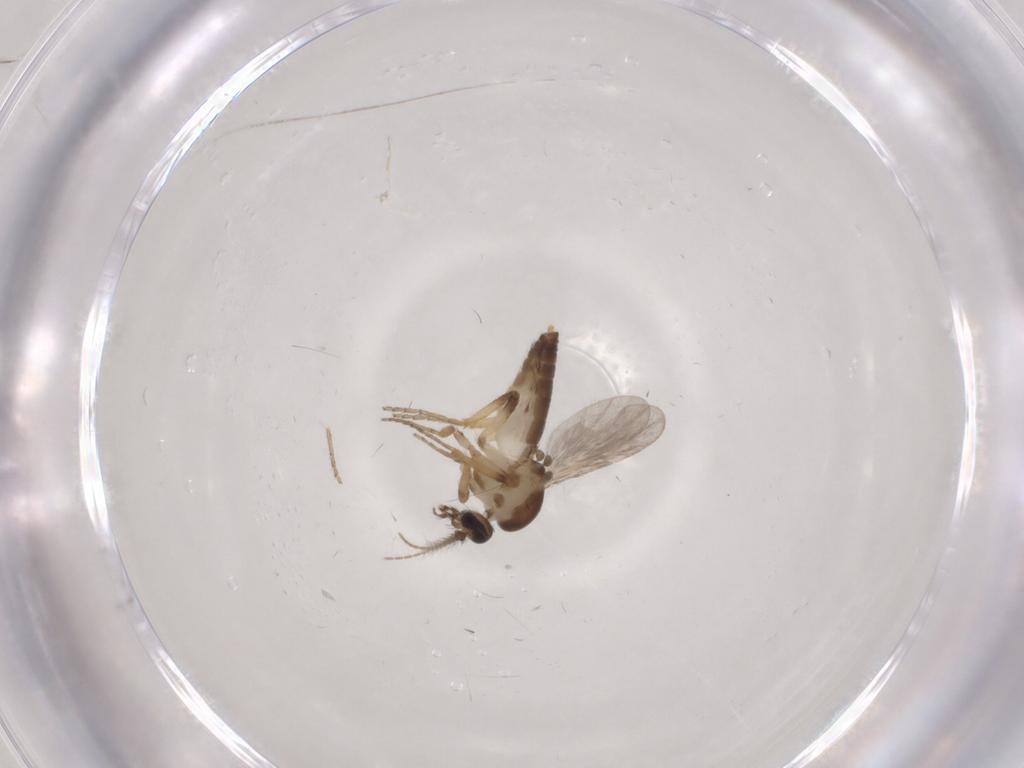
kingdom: Animalia
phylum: Arthropoda
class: Insecta
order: Diptera
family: Ceratopogonidae
